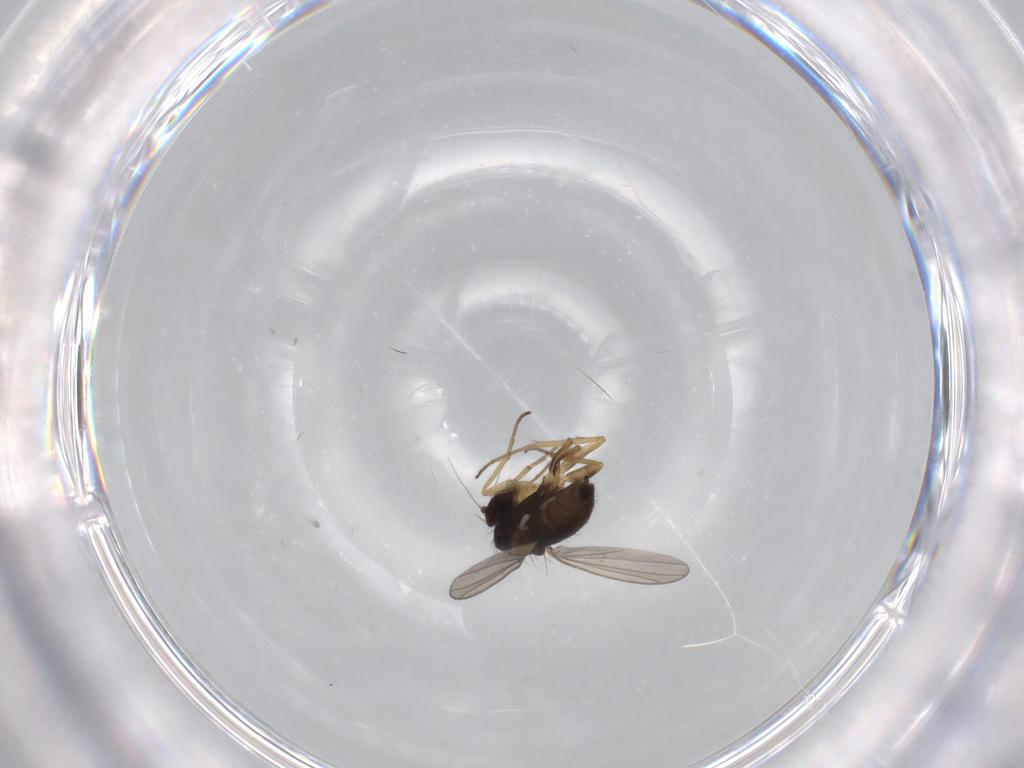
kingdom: Animalia
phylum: Arthropoda
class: Insecta
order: Diptera
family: Dolichopodidae
